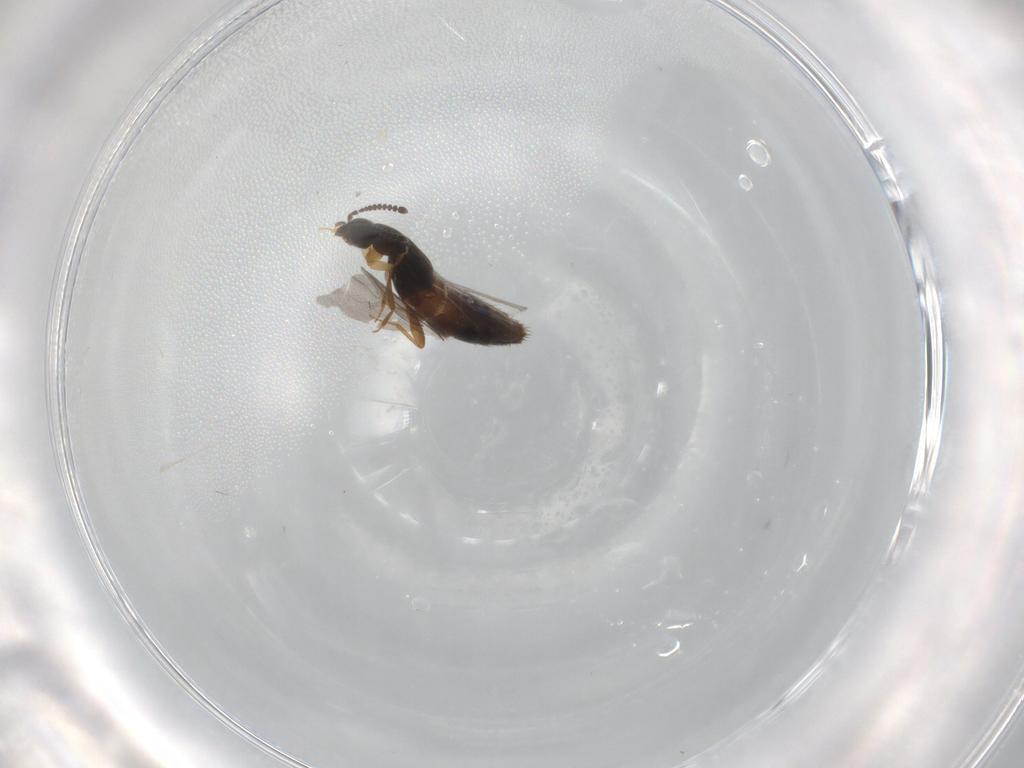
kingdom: Animalia
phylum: Arthropoda
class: Insecta
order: Coleoptera
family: Staphylinidae
